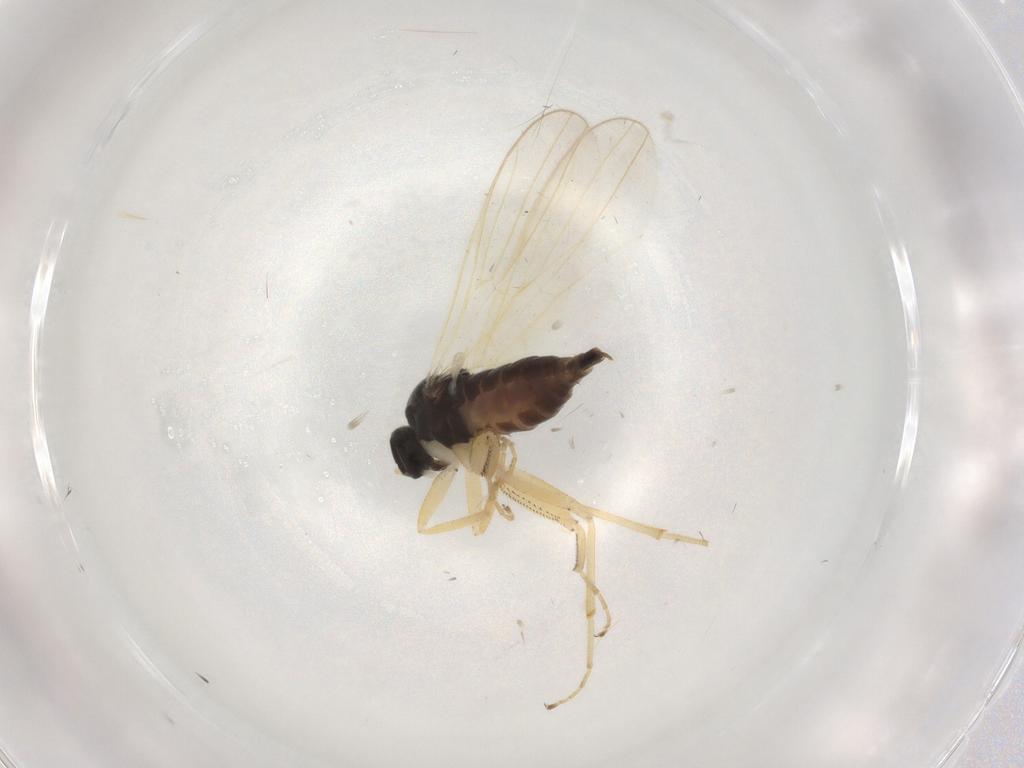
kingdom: Animalia
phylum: Arthropoda
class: Insecta
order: Diptera
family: Hybotidae
